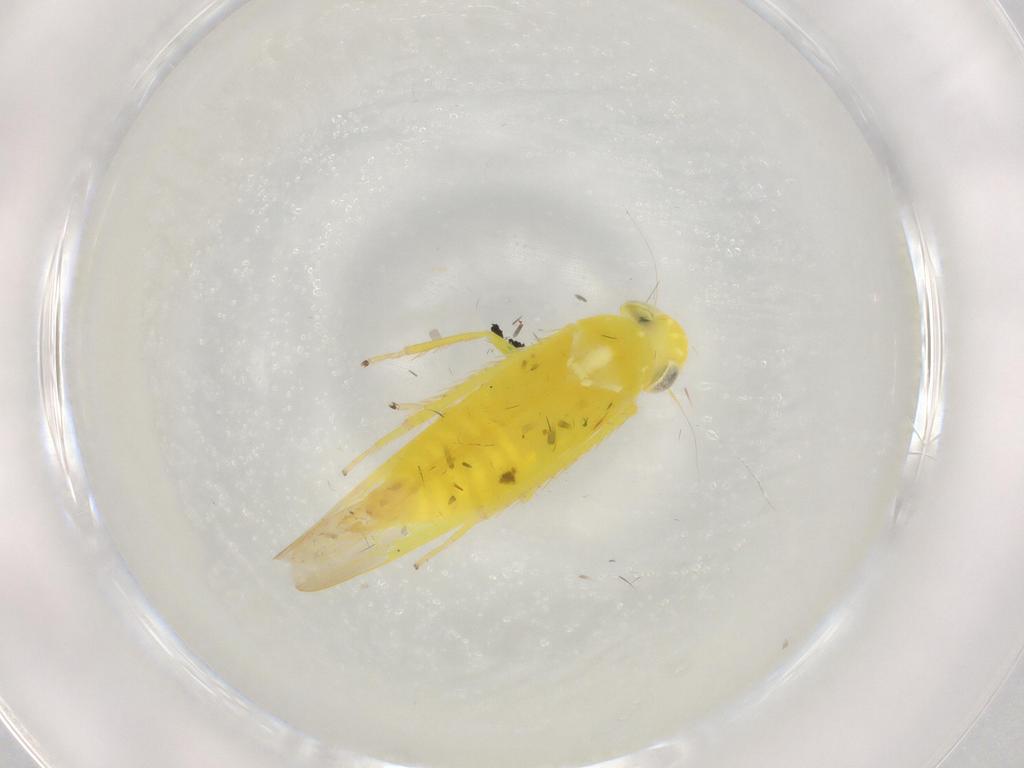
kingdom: Animalia
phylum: Arthropoda
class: Insecta
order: Hemiptera
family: Cicadellidae
